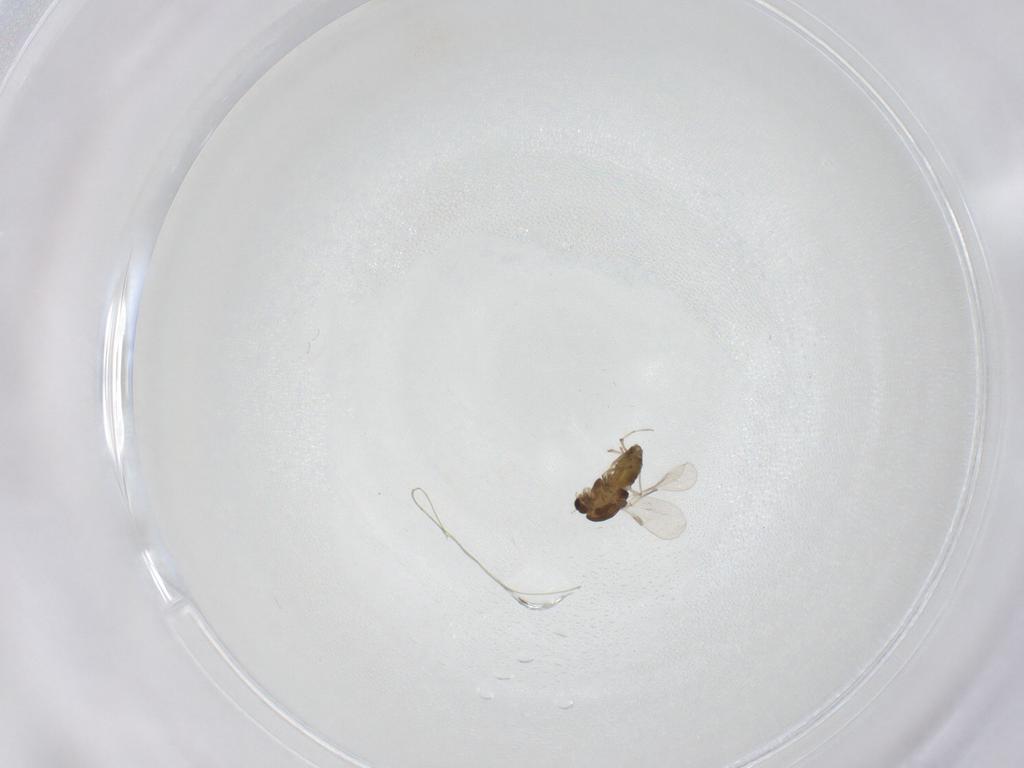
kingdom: Animalia
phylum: Arthropoda
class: Insecta
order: Diptera
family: Chironomidae
